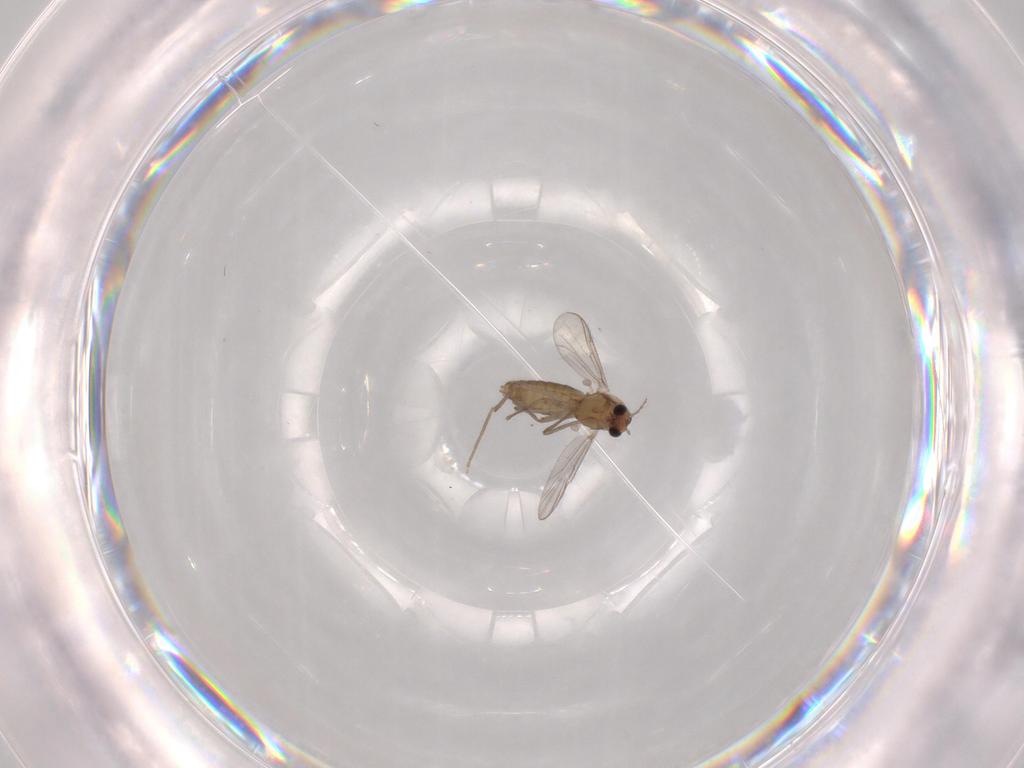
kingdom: Animalia
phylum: Arthropoda
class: Insecta
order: Diptera
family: Chironomidae
